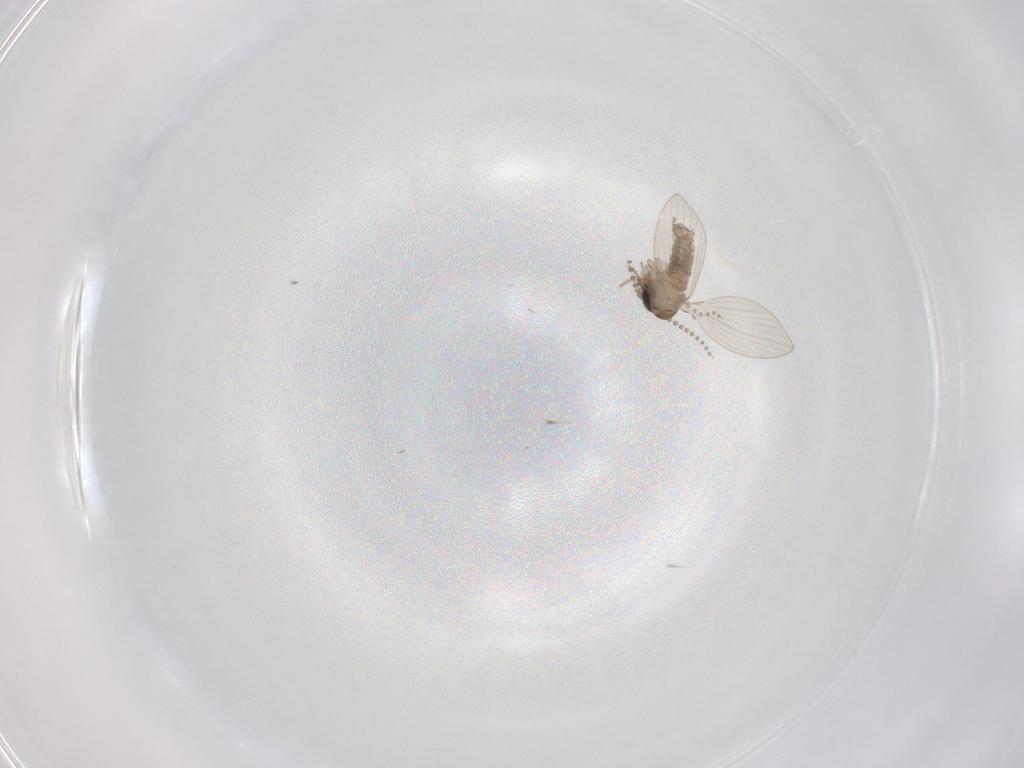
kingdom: Animalia
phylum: Arthropoda
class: Insecta
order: Diptera
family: Psychodidae
